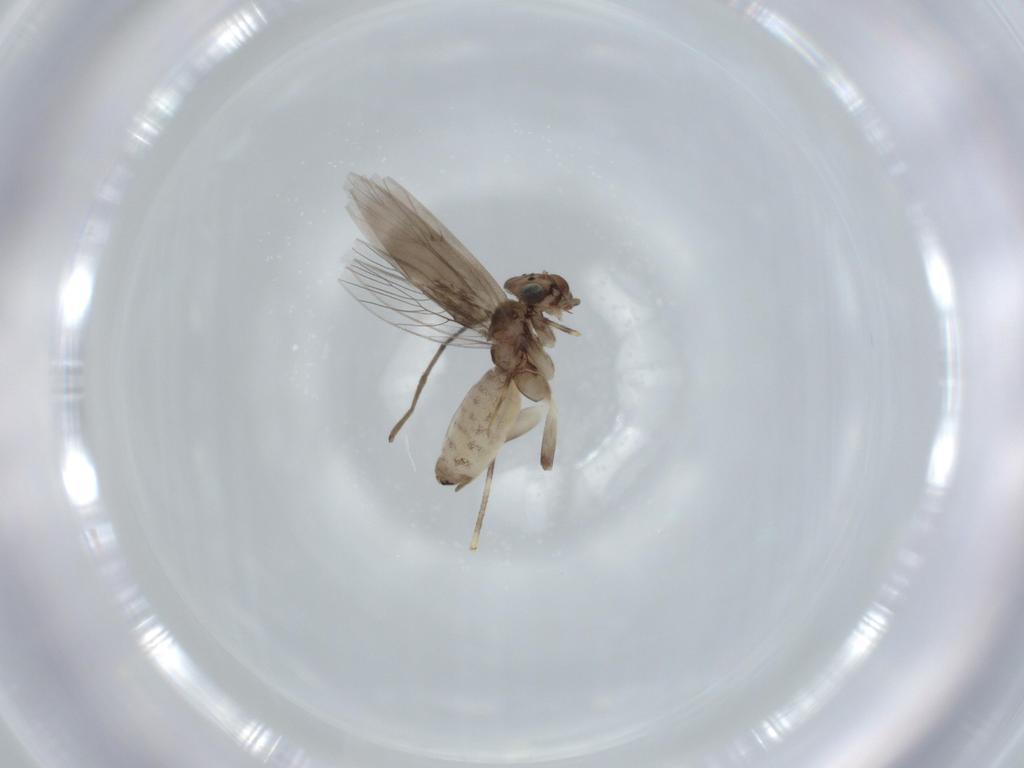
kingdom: Animalia
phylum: Arthropoda
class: Insecta
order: Psocodea
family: Lepidopsocidae
